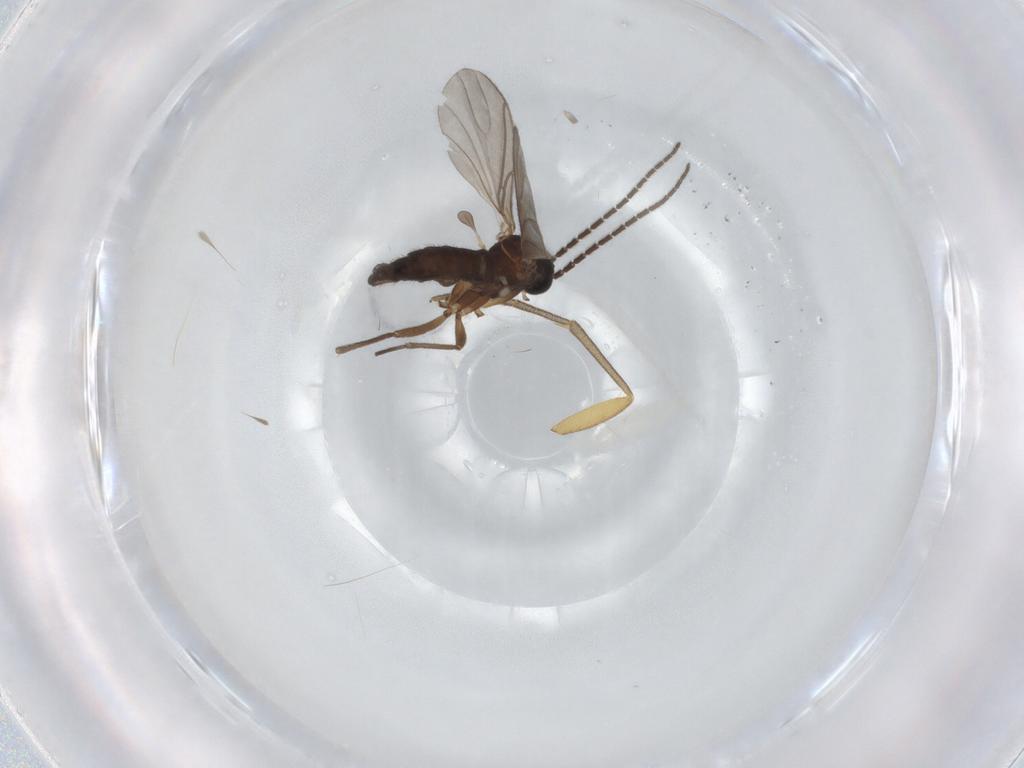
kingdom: Animalia
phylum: Arthropoda
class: Insecta
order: Diptera
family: Sciaridae
